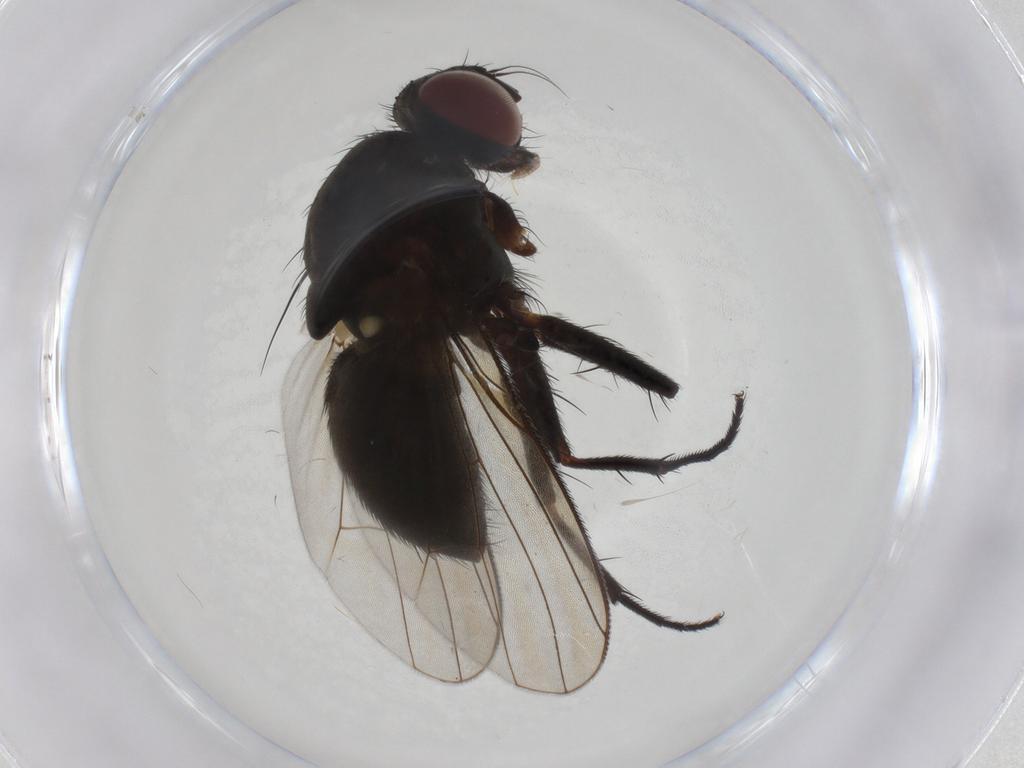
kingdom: Animalia
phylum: Arthropoda
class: Insecta
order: Diptera
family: Muscidae
